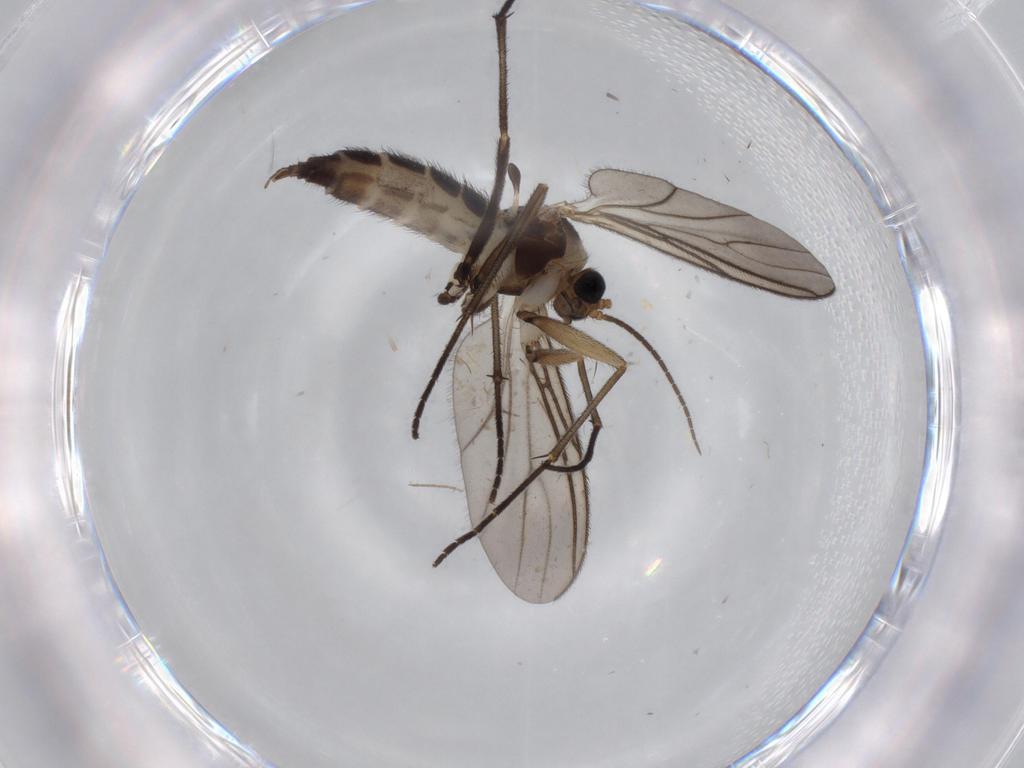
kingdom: Animalia
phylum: Arthropoda
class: Insecta
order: Diptera
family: Sciaridae
